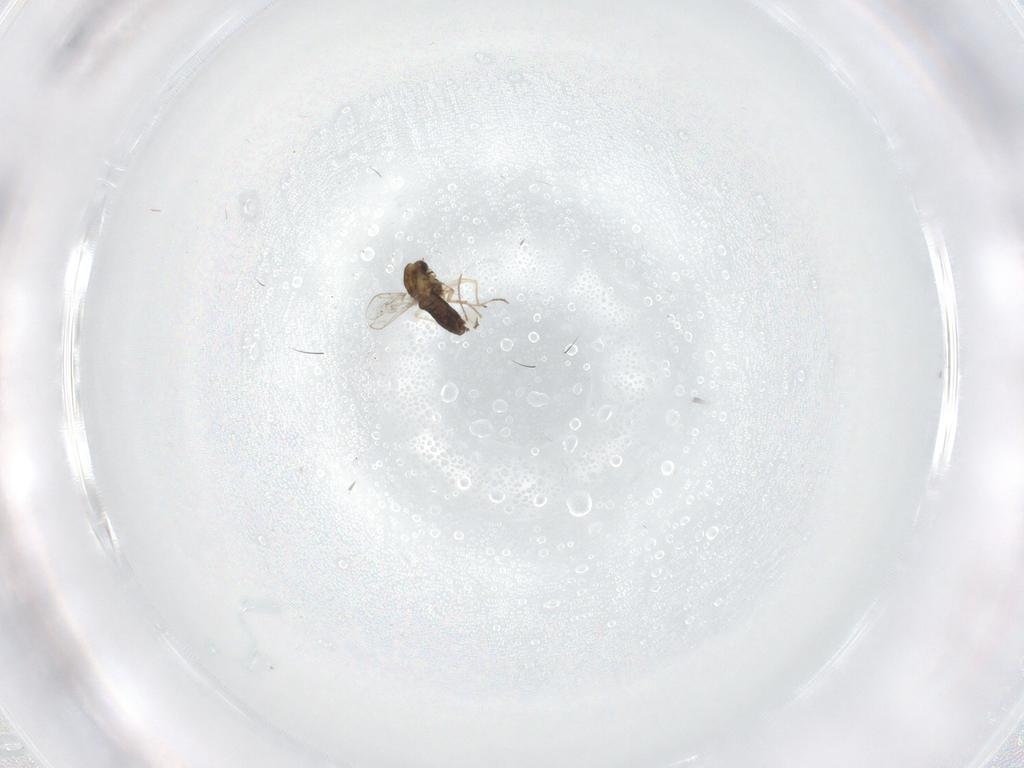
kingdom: Animalia
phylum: Arthropoda
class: Insecta
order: Diptera
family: Chironomidae
